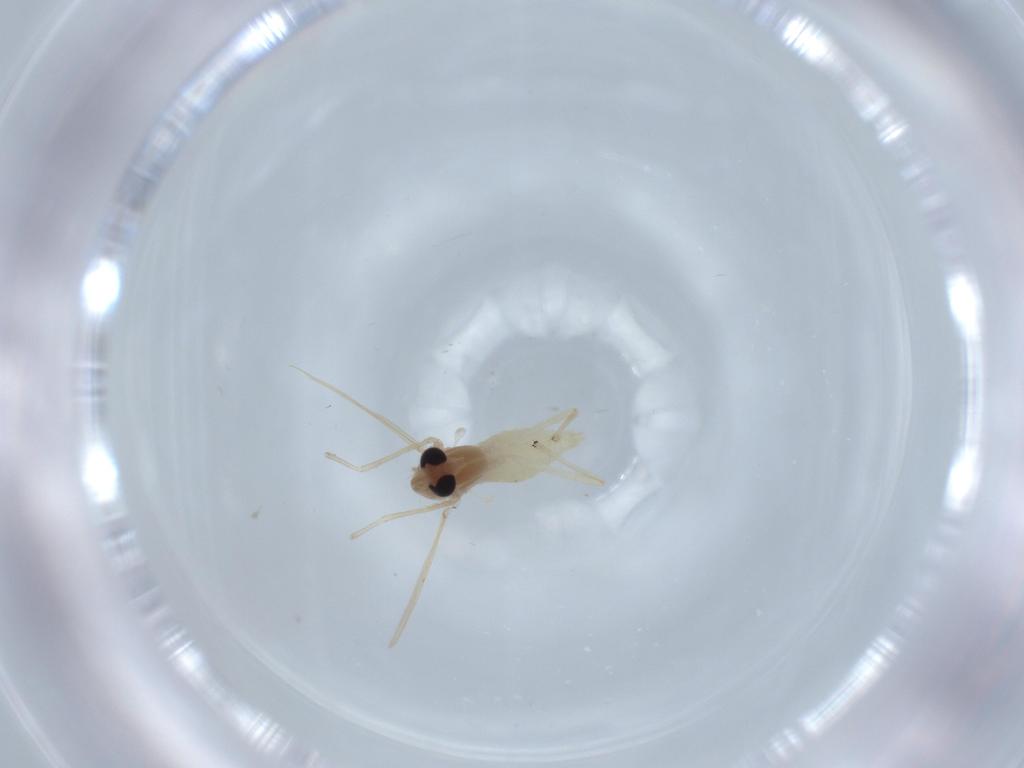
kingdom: Animalia
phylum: Arthropoda
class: Insecta
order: Diptera
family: Chironomidae
